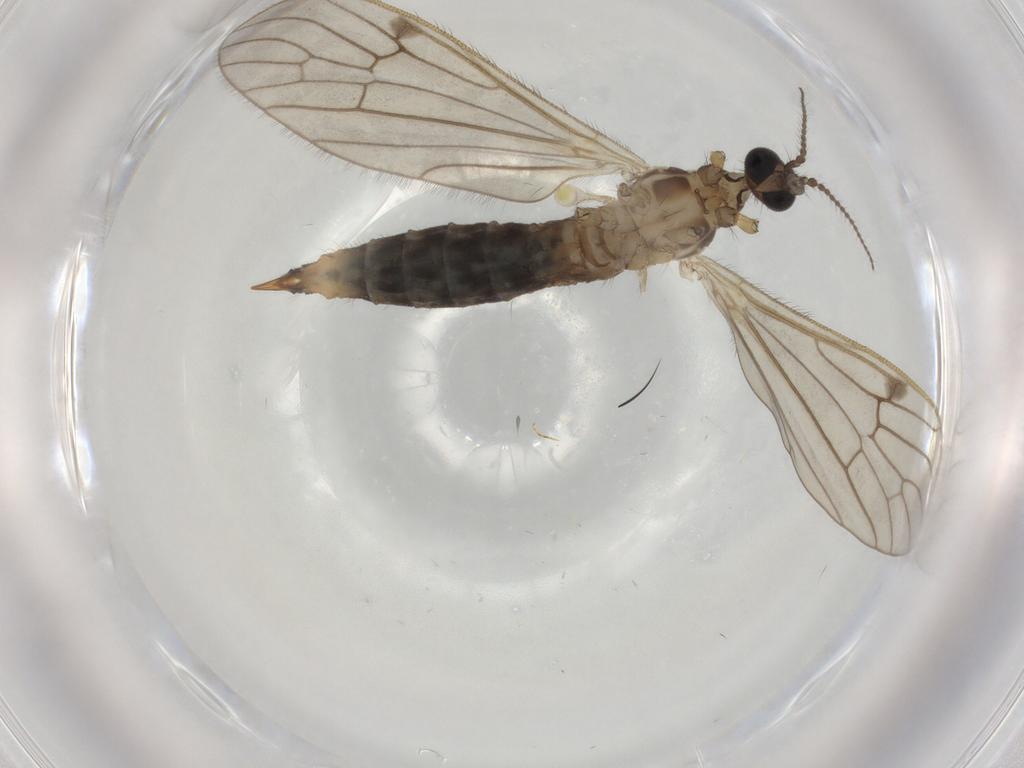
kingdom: Animalia
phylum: Arthropoda
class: Insecta
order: Diptera
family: Limoniidae
